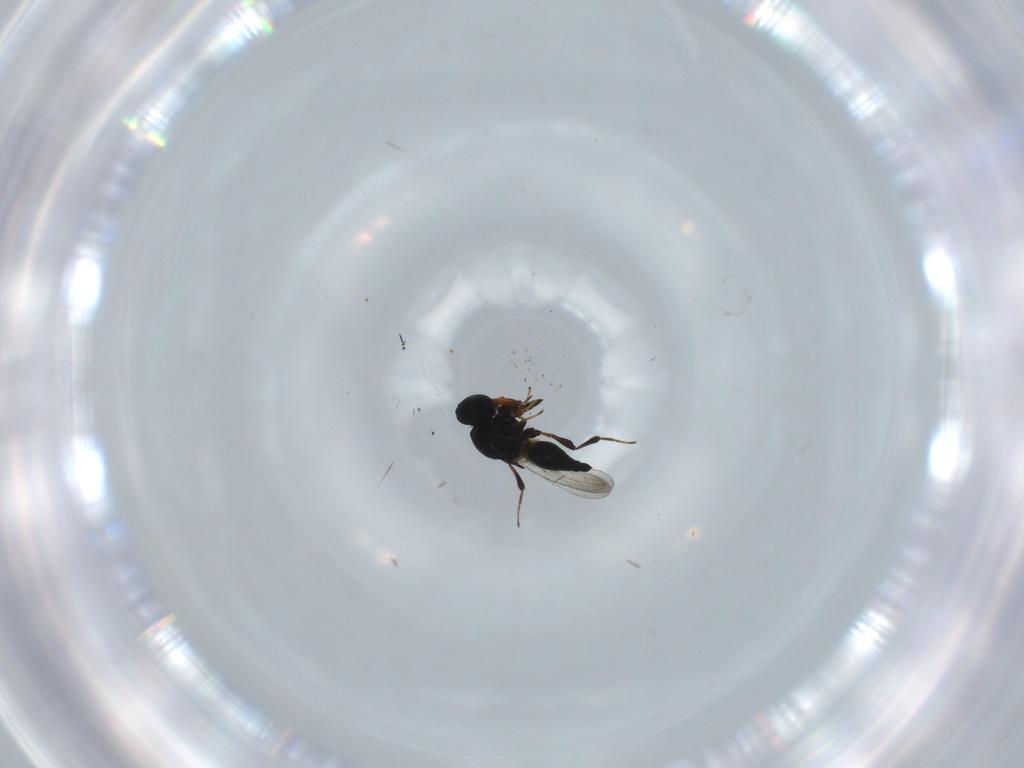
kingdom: Animalia
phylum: Arthropoda
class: Insecta
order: Hymenoptera
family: Platygastridae
